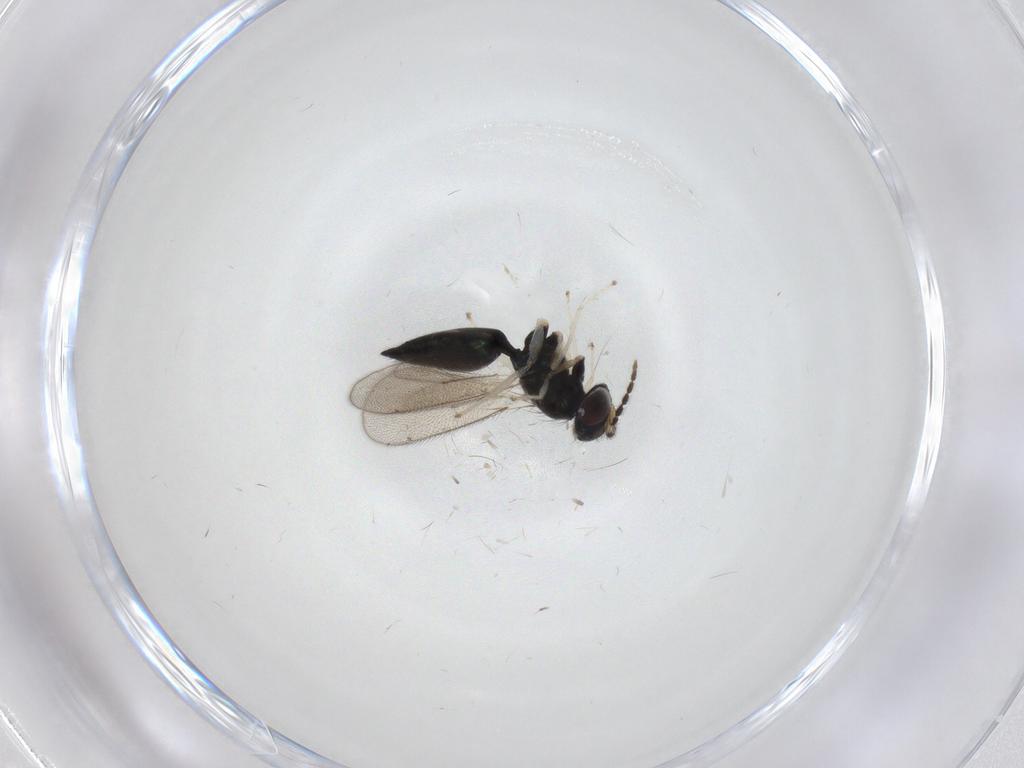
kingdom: Animalia
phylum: Arthropoda
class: Insecta
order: Hymenoptera
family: Eulophidae
